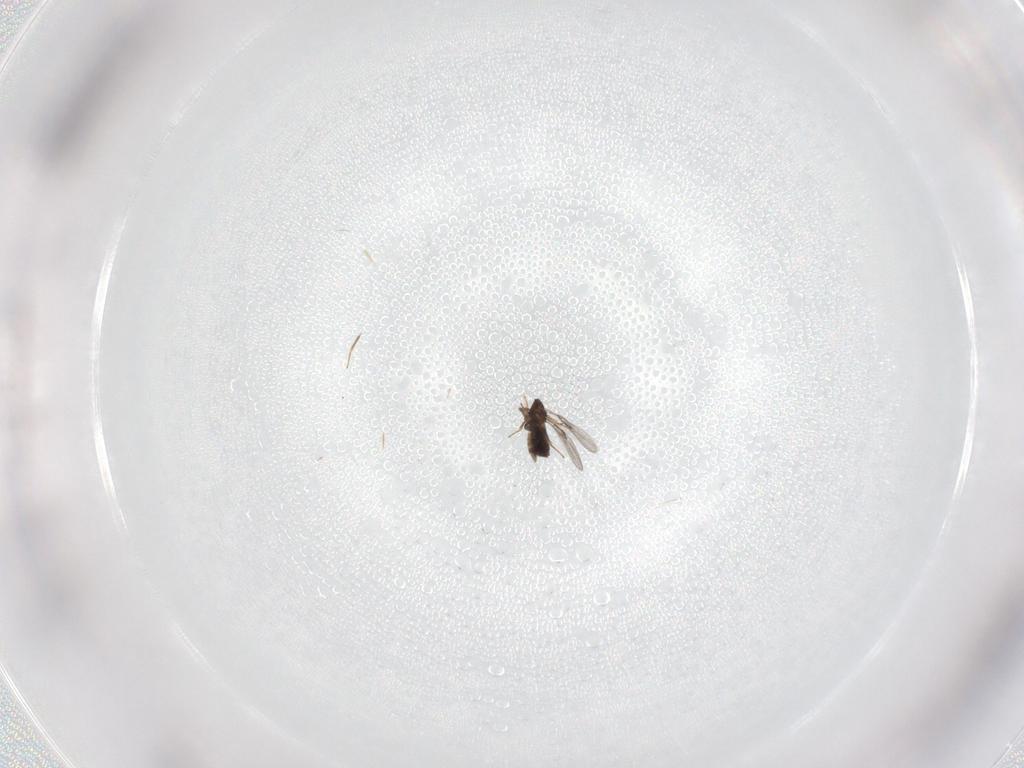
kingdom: Animalia
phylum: Arthropoda
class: Insecta
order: Hymenoptera
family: Trichogrammatidae
